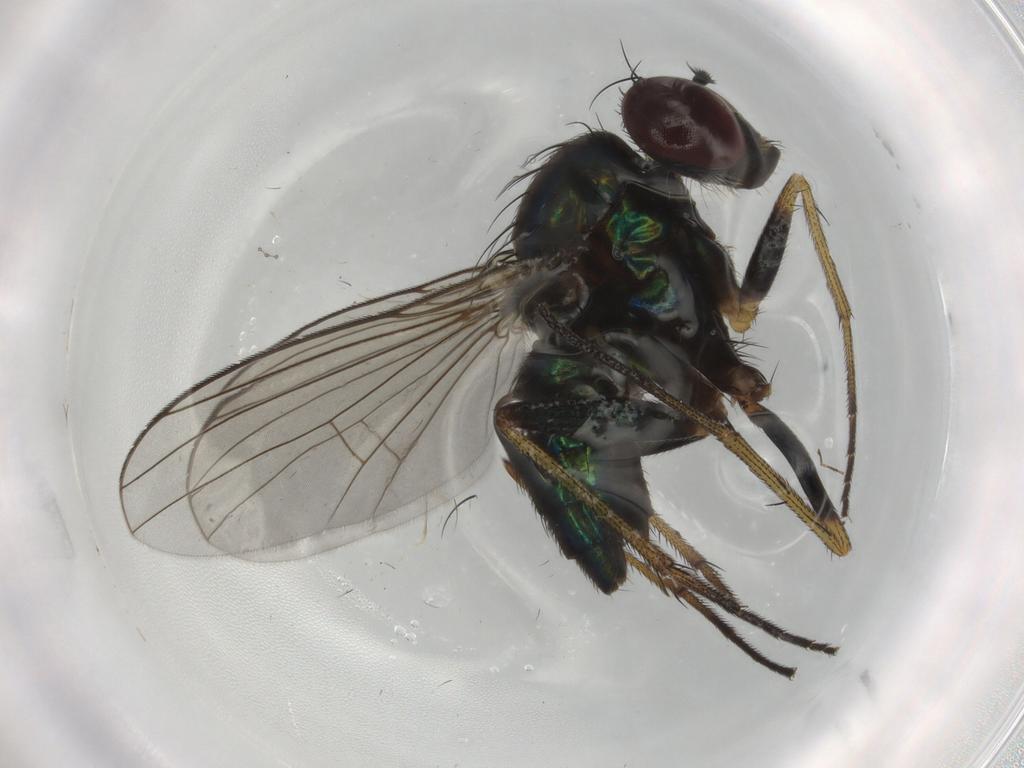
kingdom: Animalia
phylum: Arthropoda
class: Insecta
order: Diptera
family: Dolichopodidae
